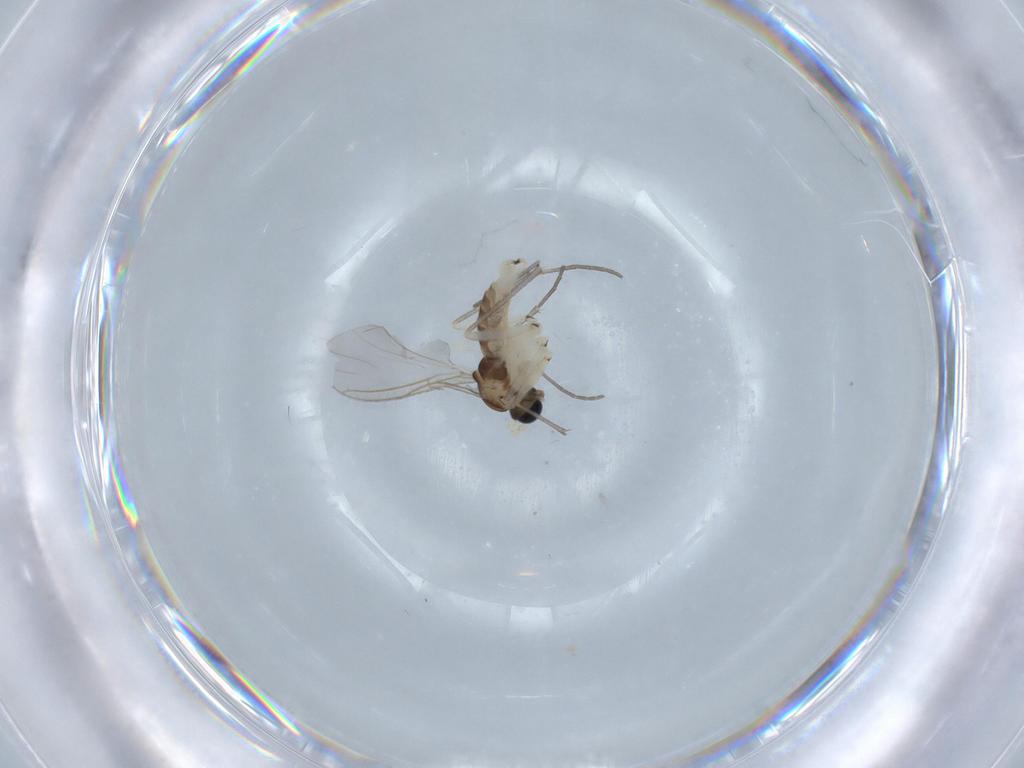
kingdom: Animalia
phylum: Arthropoda
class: Insecta
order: Diptera
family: Sciaridae
